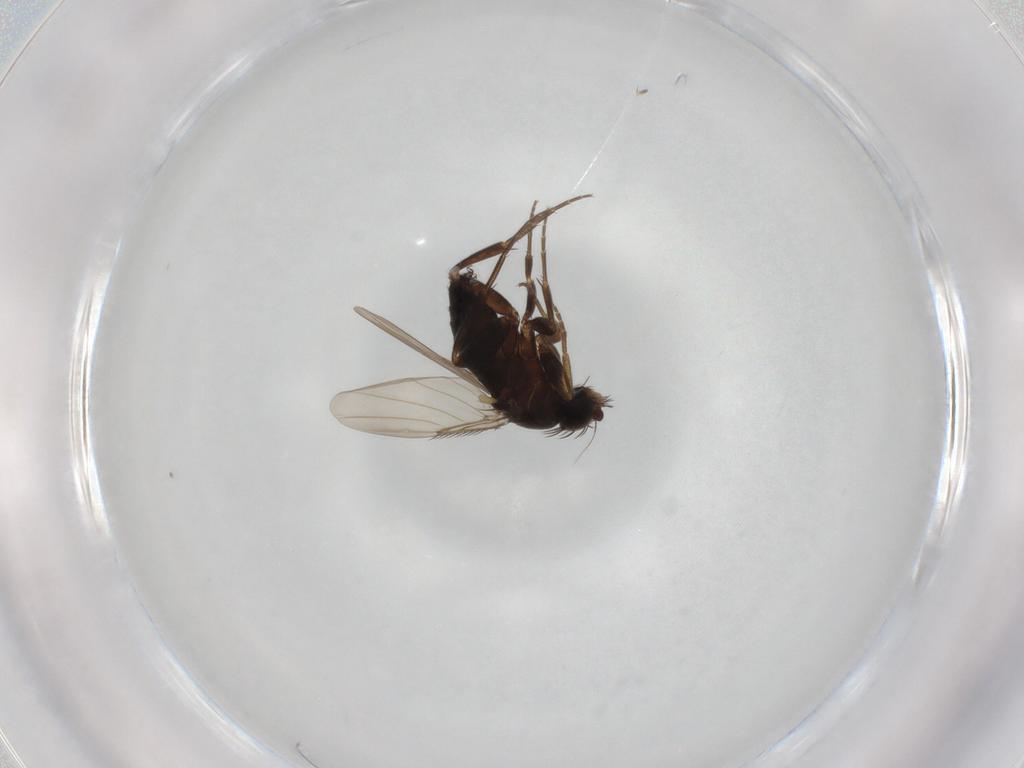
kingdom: Animalia
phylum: Arthropoda
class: Insecta
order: Diptera
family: Phoridae
